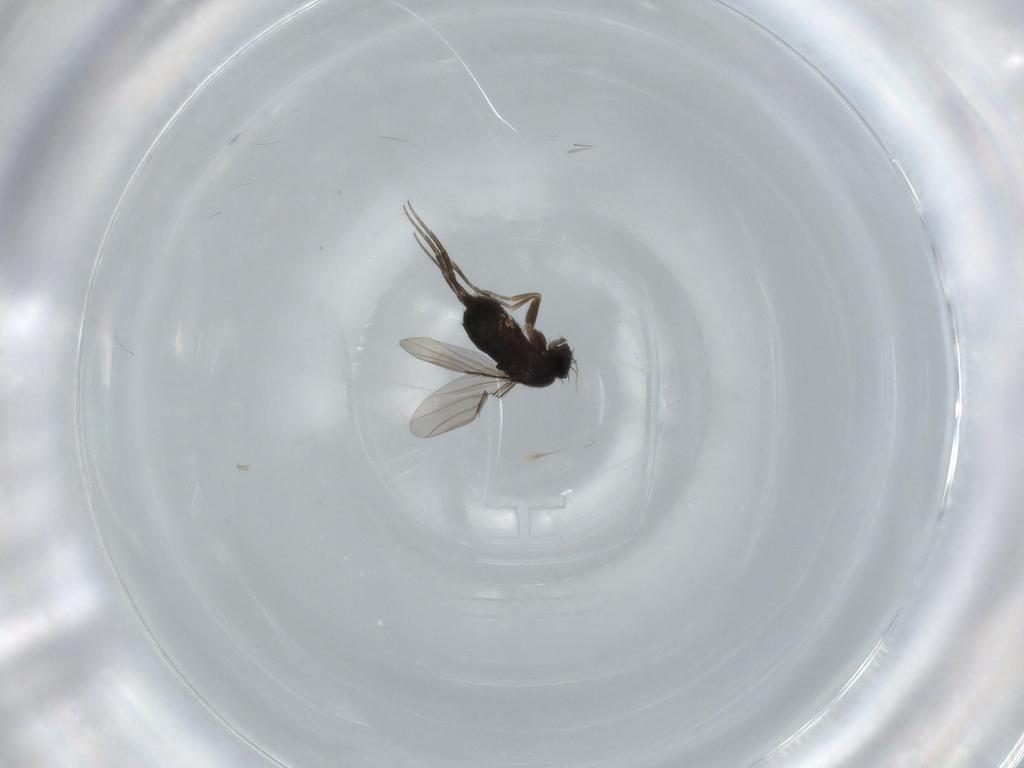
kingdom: Animalia
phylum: Arthropoda
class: Insecta
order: Diptera
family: Phoridae
